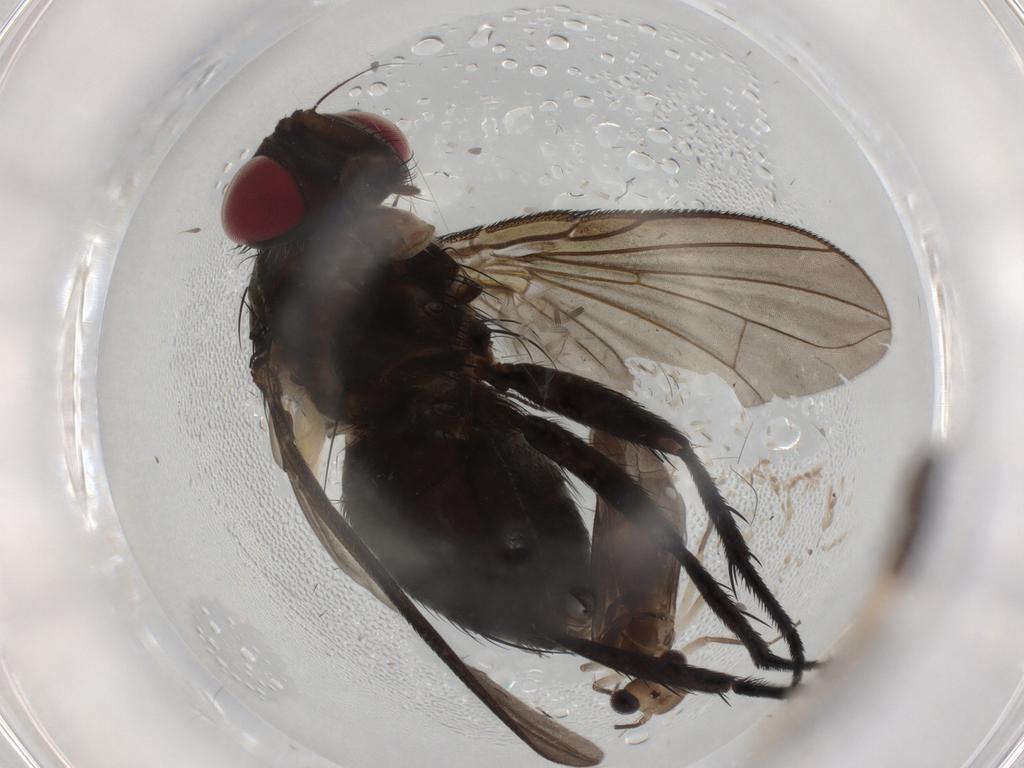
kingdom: Animalia
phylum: Arthropoda
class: Insecta
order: Diptera
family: Sciaridae
